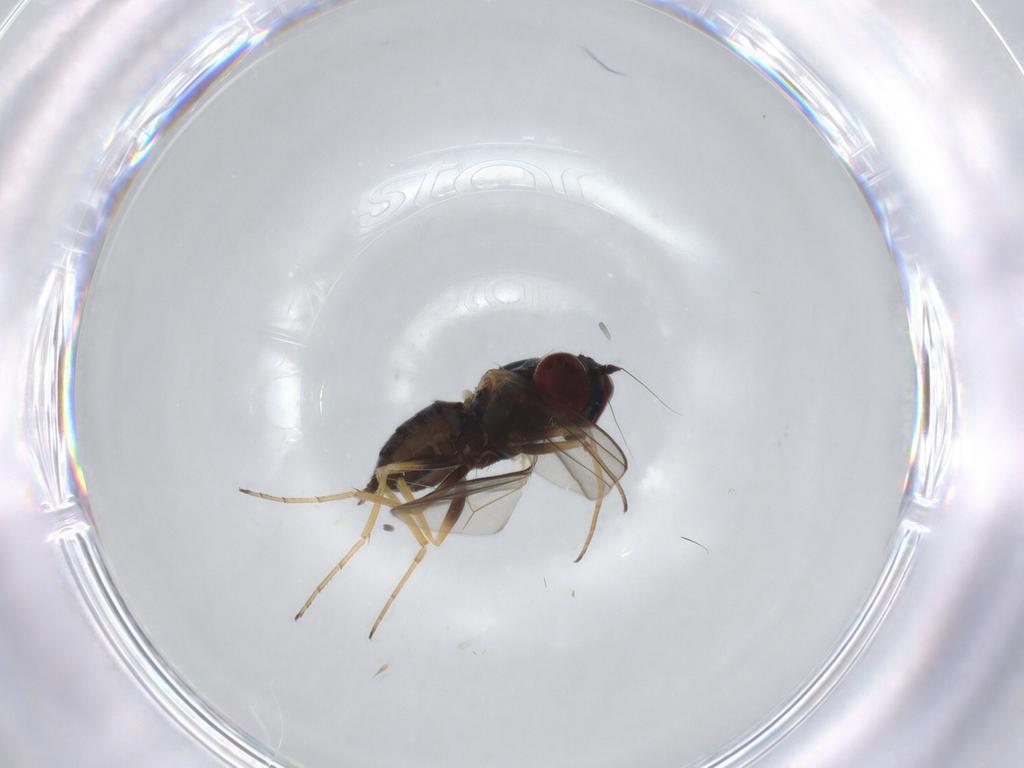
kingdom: Animalia
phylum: Arthropoda
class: Insecta
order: Diptera
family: Dolichopodidae
